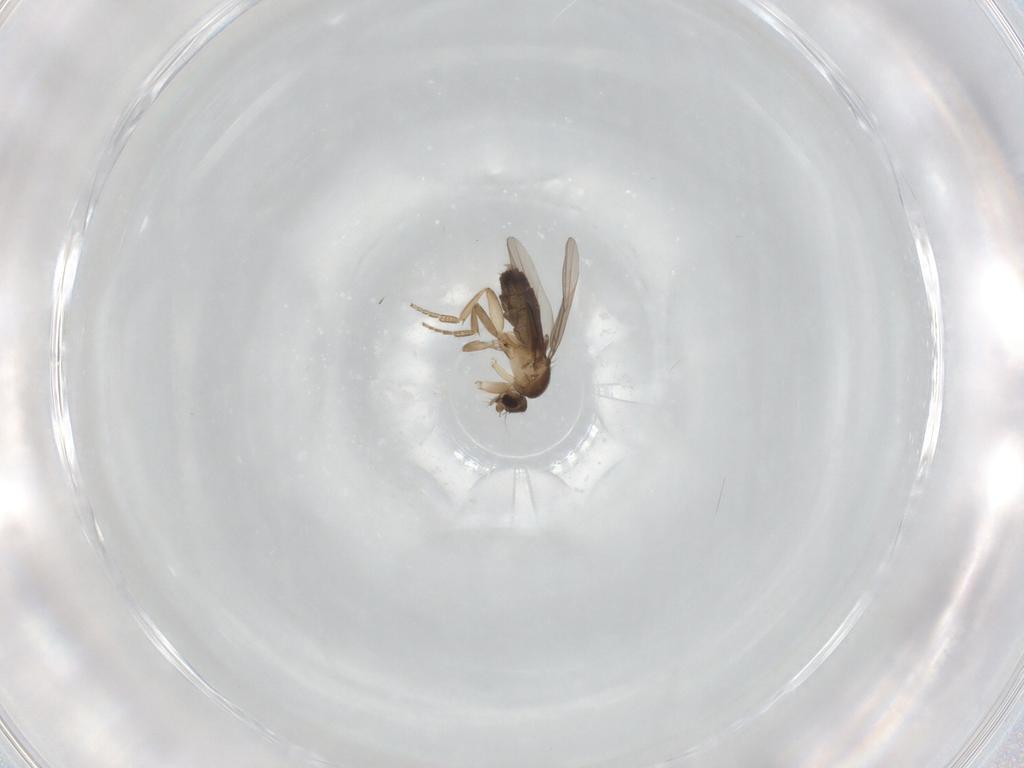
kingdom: Animalia
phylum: Arthropoda
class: Insecta
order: Diptera
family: Phoridae
